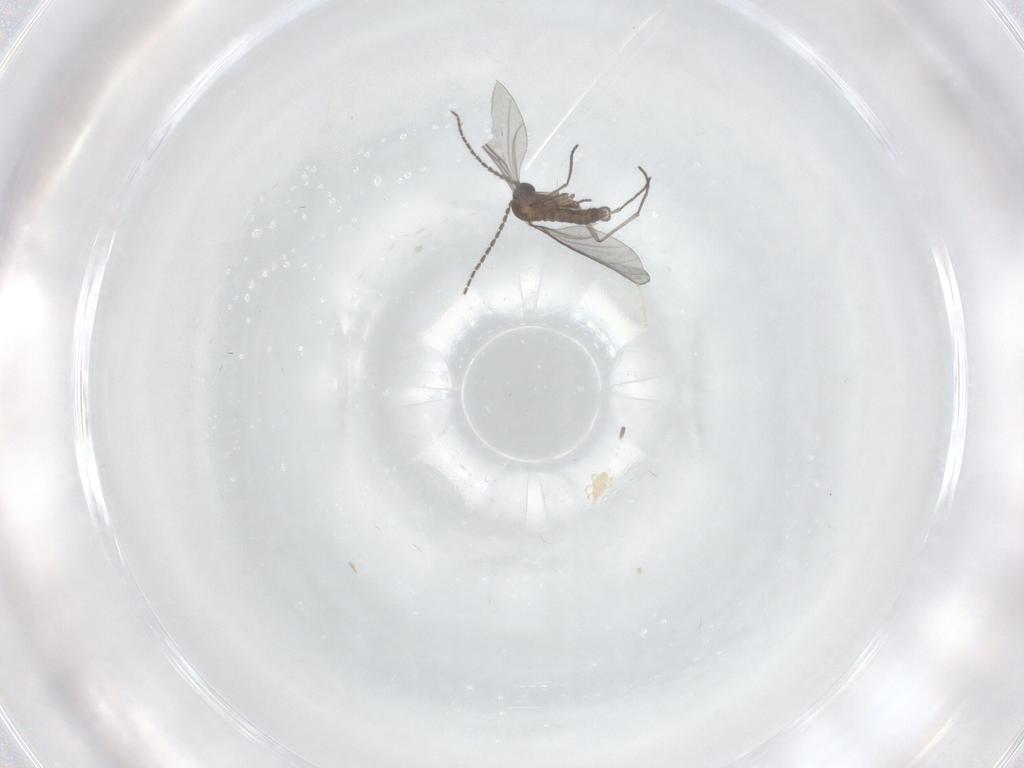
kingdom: Animalia
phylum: Arthropoda
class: Insecta
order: Diptera
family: Sciaridae
